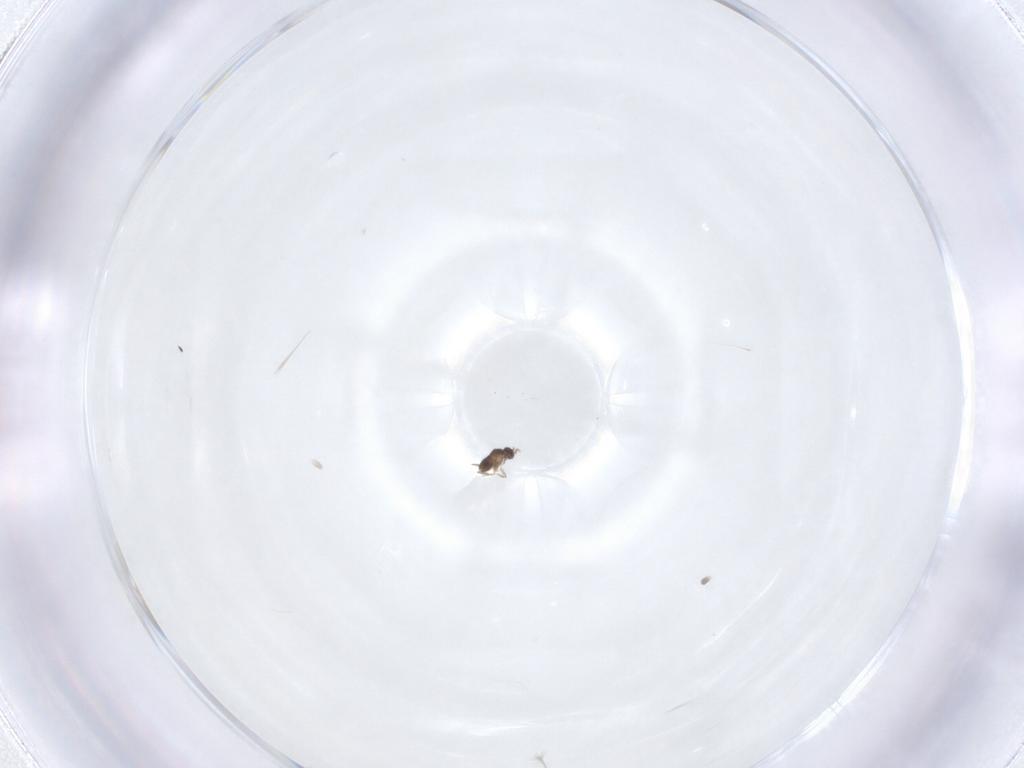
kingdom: Animalia
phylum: Arthropoda
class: Insecta
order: Hymenoptera
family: Mymaridae
